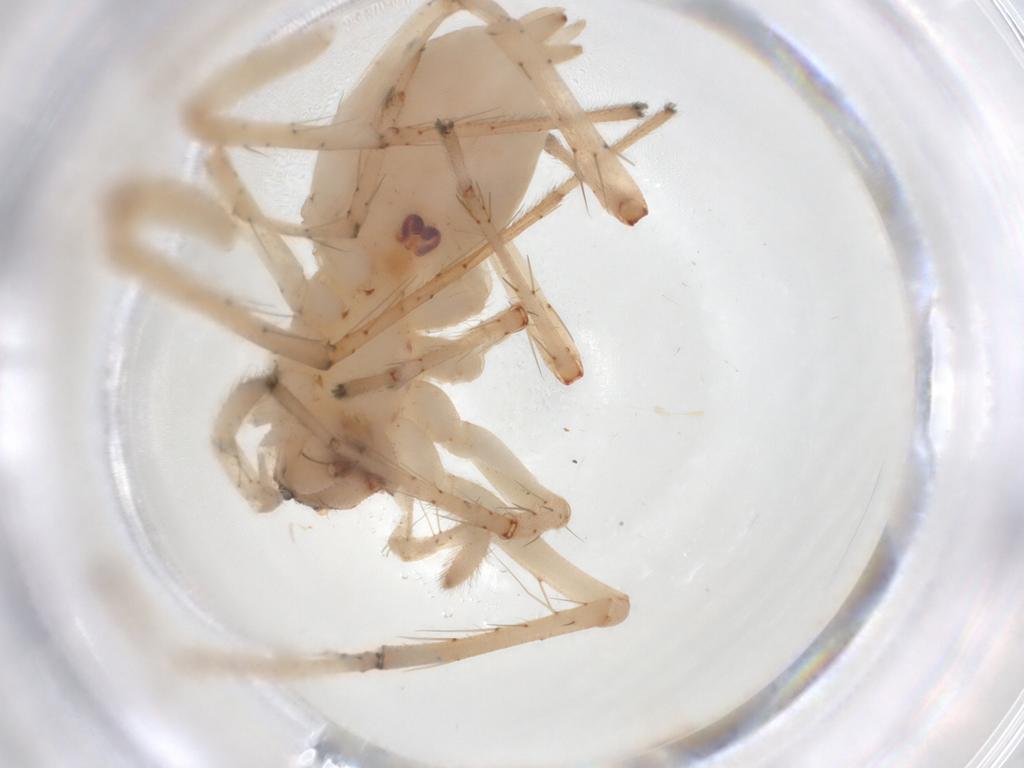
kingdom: Animalia
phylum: Arthropoda
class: Arachnida
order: Araneae
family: Anyphaenidae
